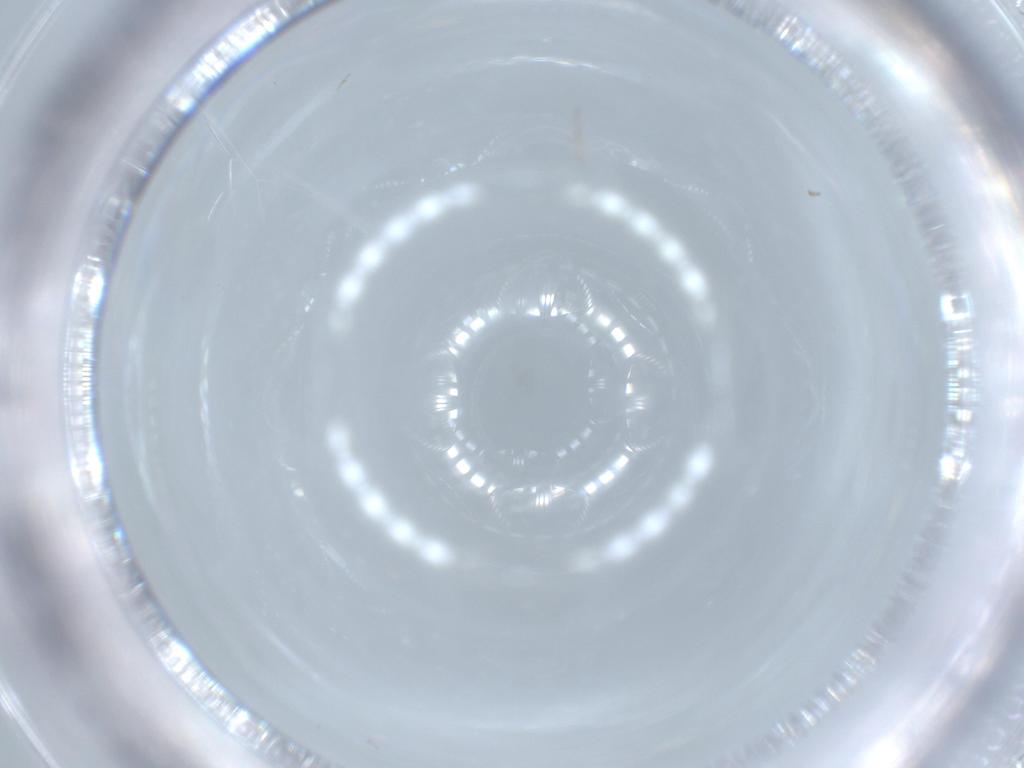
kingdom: Animalia
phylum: Arthropoda
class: Insecta
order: Diptera
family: Cecidomyiidae
